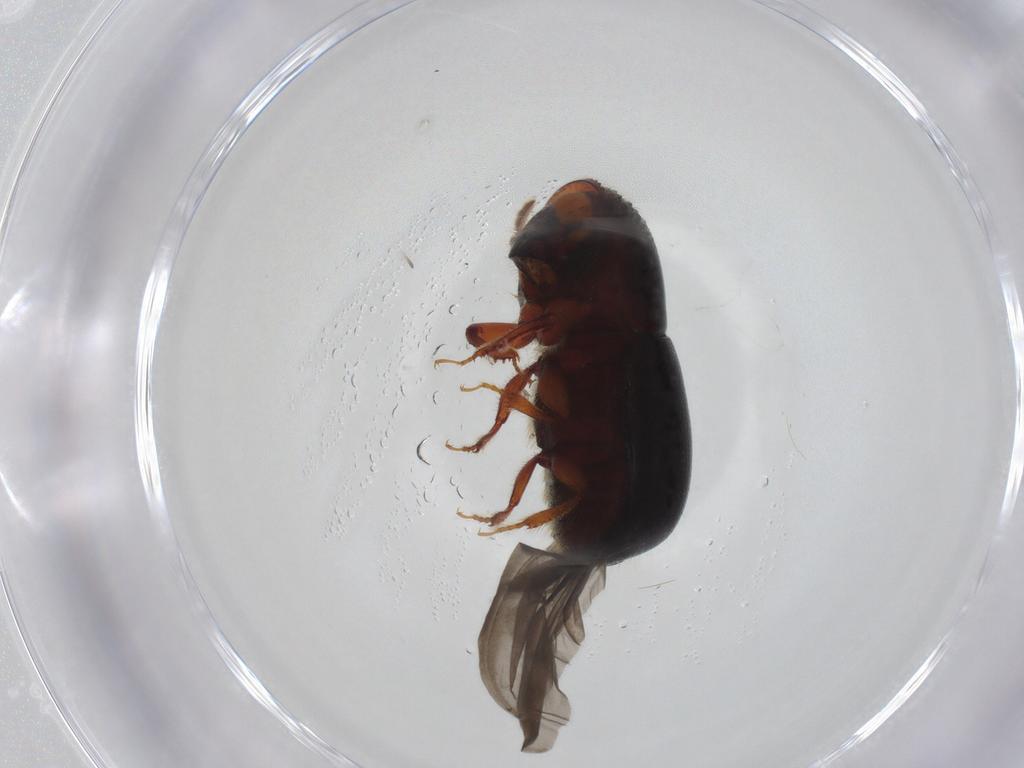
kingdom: Animalia
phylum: Arthropoda
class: Insecta
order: Coleoptera
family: Curculionidae
